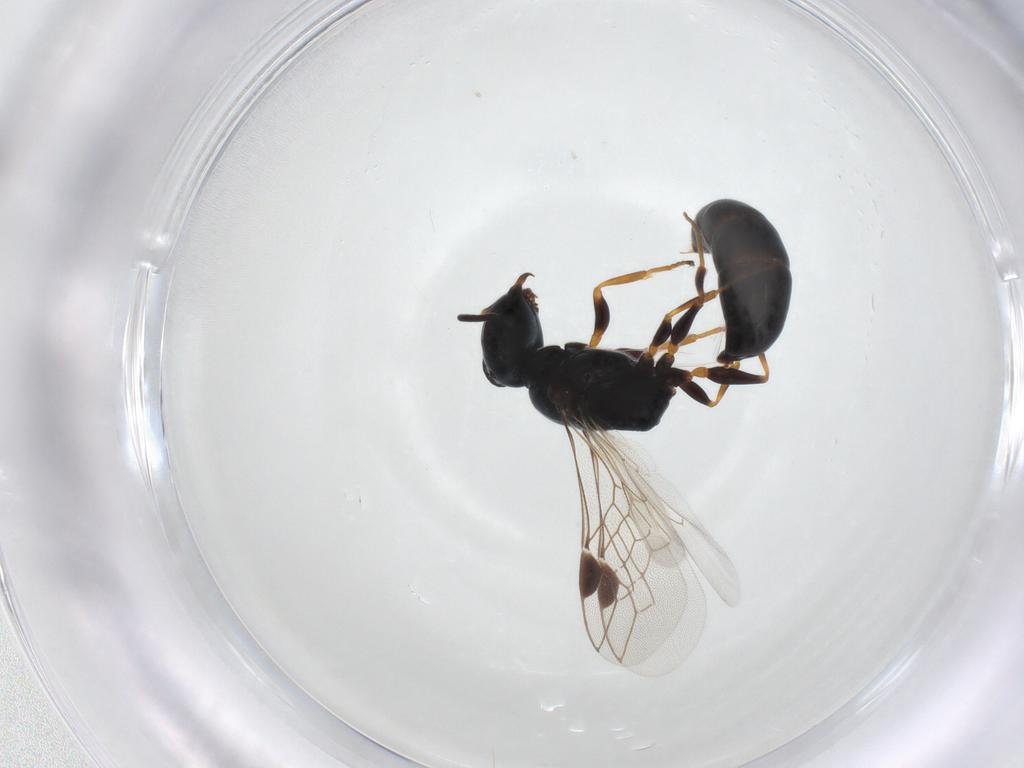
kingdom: Animalia
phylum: Arthropoda
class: Insecta
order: Hymenoptera
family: Crabronidae
